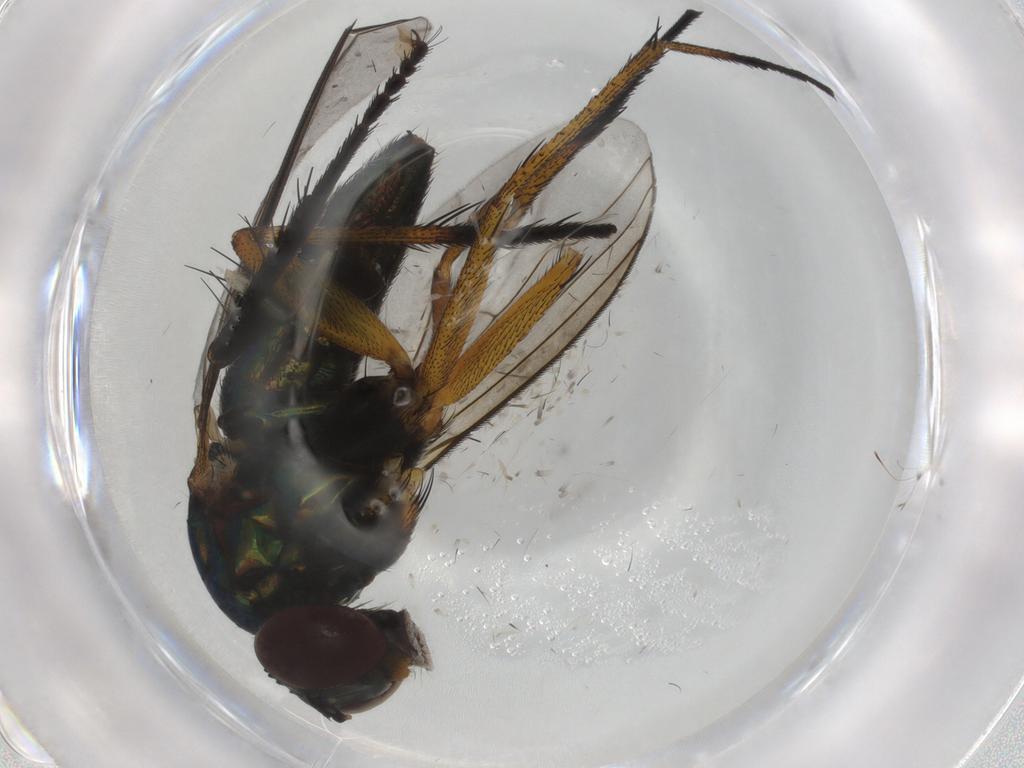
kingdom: Animalia
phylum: Arthropoda
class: Insecta
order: Diptera
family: Dolichopodidae
